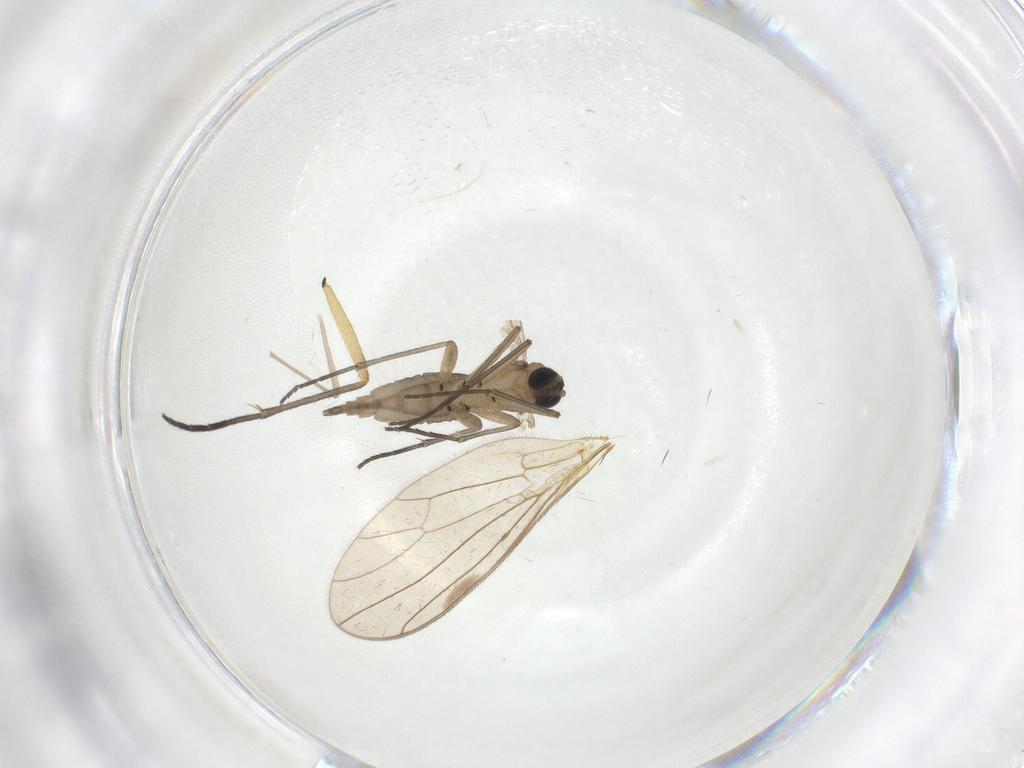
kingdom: Animalia
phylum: Arthropoda
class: Insecta
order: Diptera
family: Sciaridae
